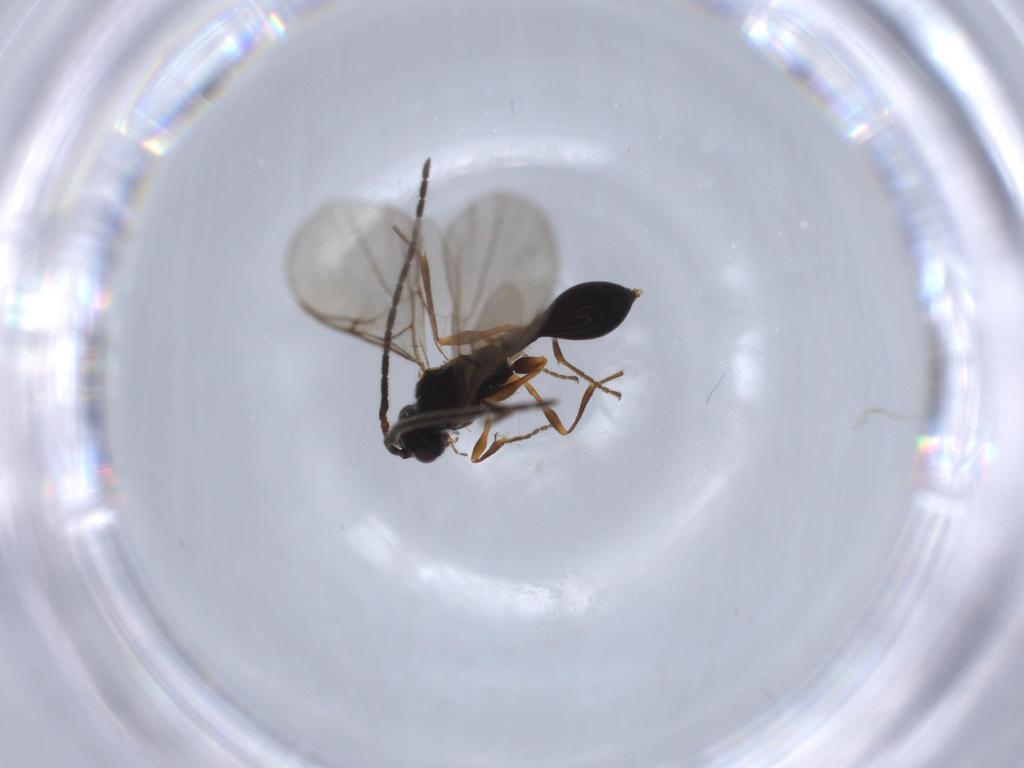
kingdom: Animalia
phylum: Arthropoda
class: Insecta
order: Hymenoptera
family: Diapriidae
